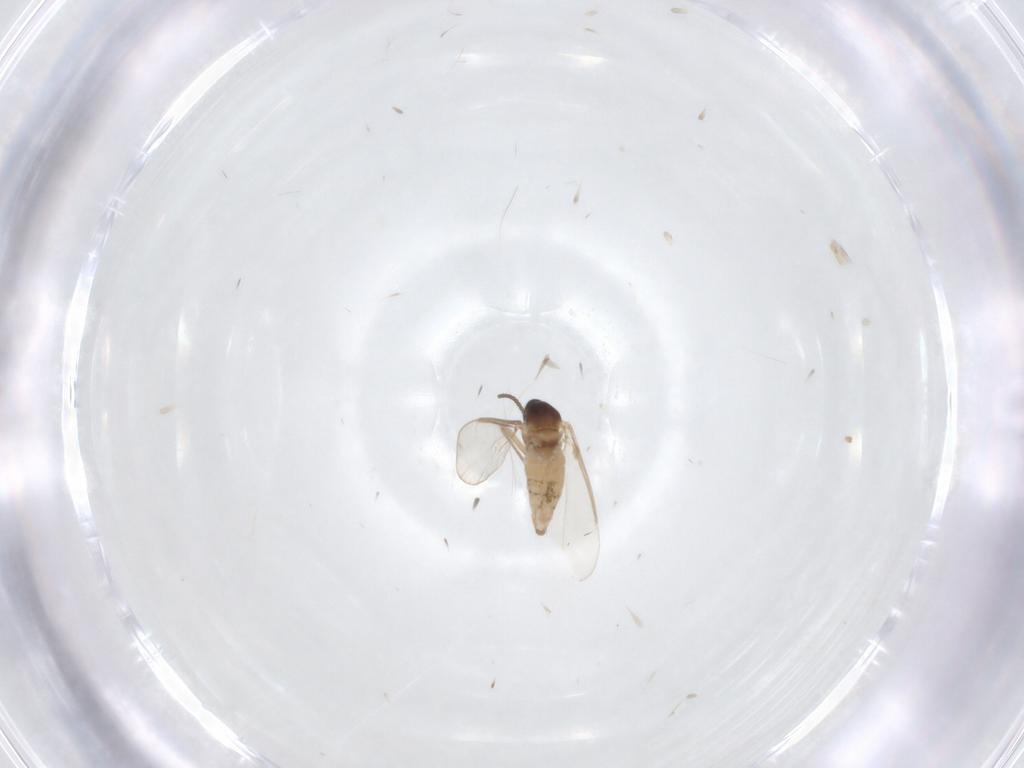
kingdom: Animalia
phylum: Arthropoda
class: Insecta
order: Diptera
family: Cecidomyiidae
